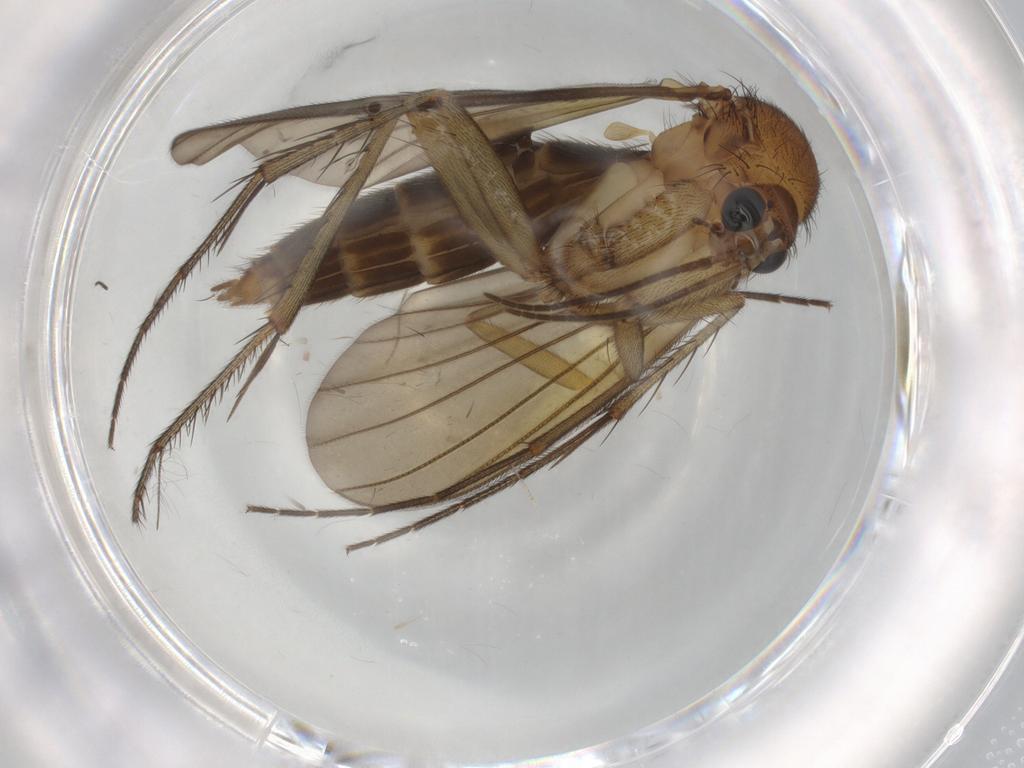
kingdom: Animalia
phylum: Arthropoda
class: Insecta
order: Diptera
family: Mycetophilidae
